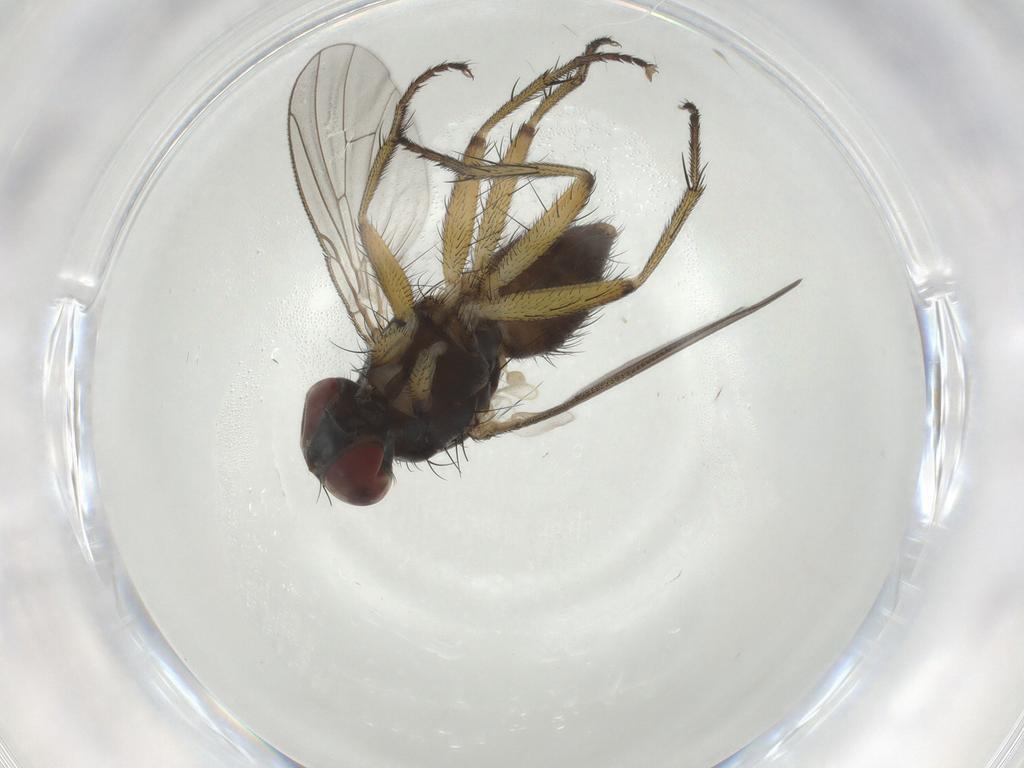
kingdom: Animalia
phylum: Arthropoda
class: Insecta
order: Diptera
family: Muscidae
